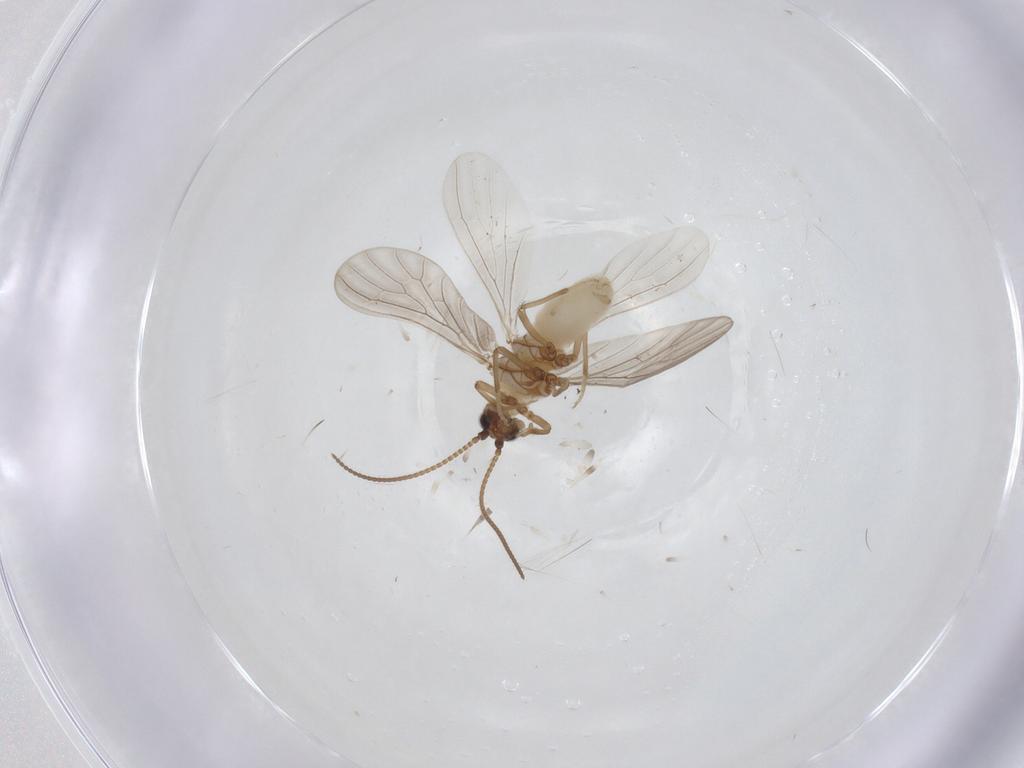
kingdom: Animalia
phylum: Arthropoda
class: Insecta
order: Neuroptera
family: Coniopterygidae
